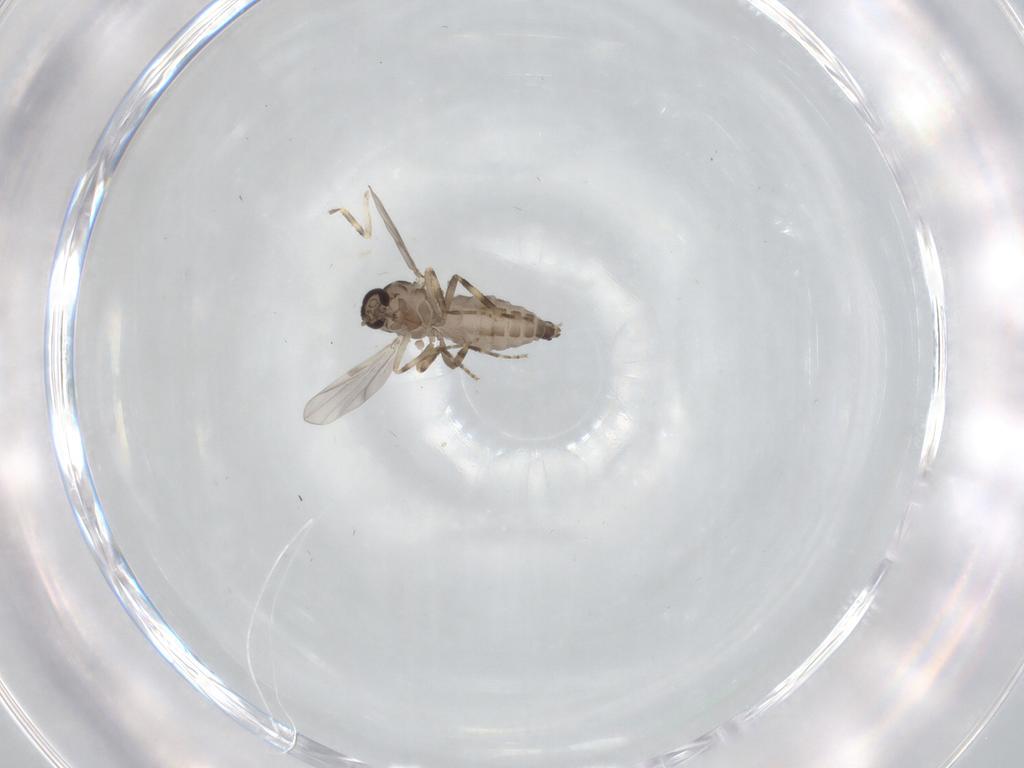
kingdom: Animalia
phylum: Arthropoda
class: Insecta
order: Diptera
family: Ceratopogonidae
